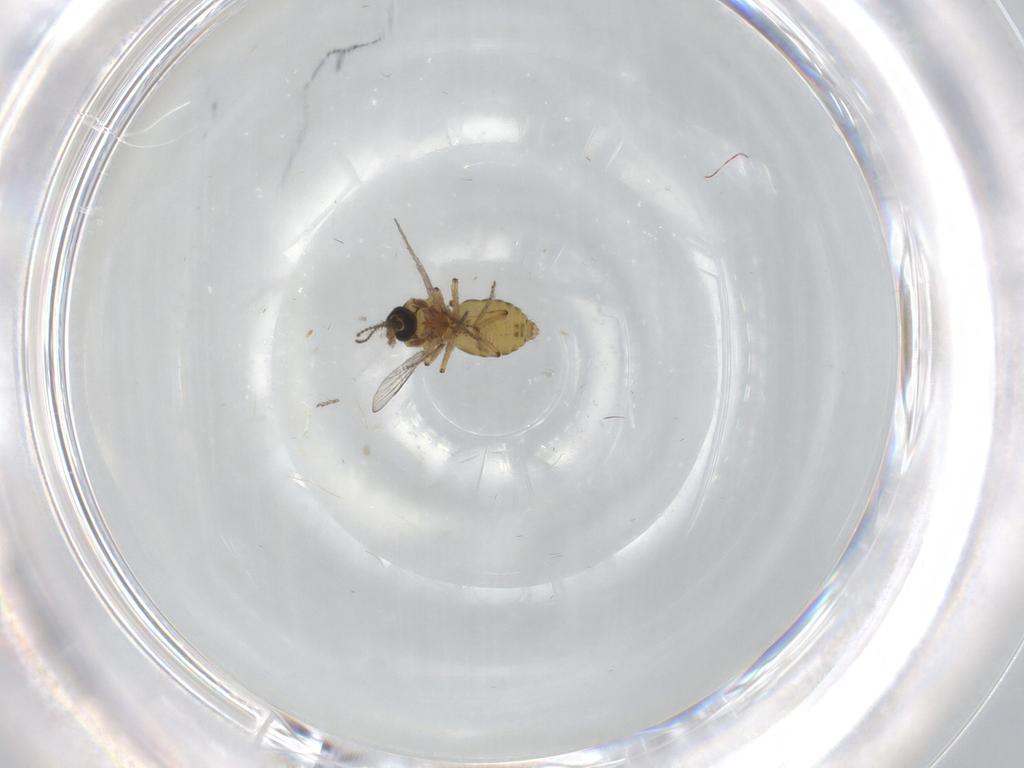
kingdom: Animalia
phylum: Arthropoda
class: Insecta
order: Diptera
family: Ceratopogonidae
